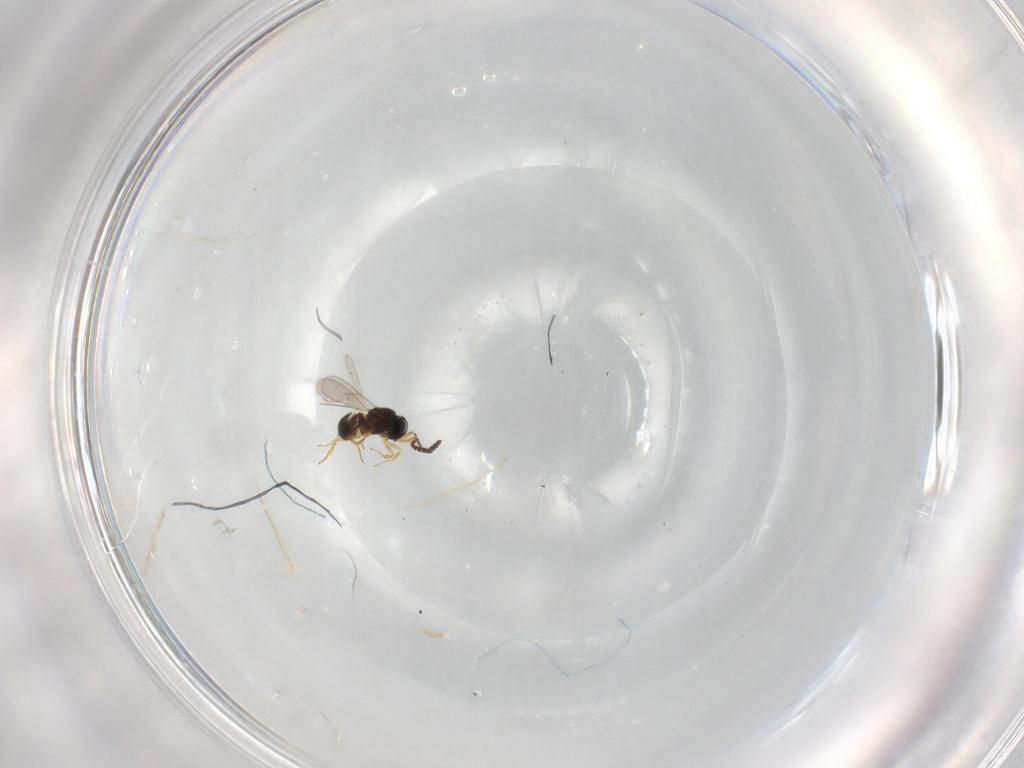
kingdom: Animalia
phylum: Arthropoda
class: Insecta
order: Hymenoptera
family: Scelionidae
